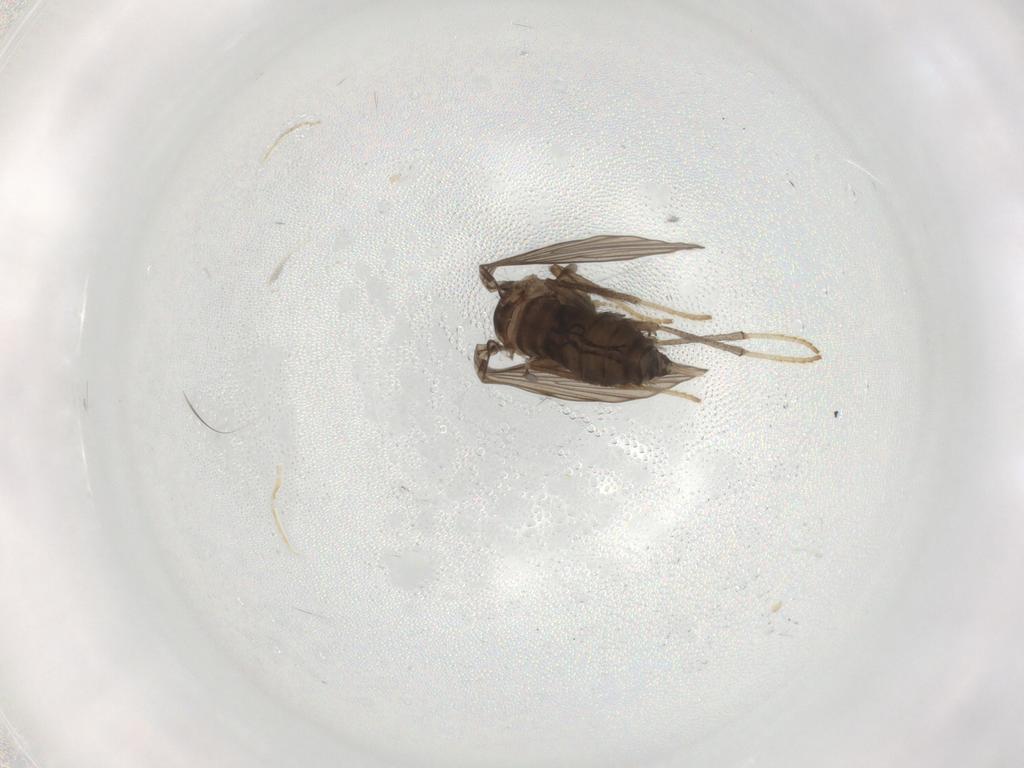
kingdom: Animalia
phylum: Arthropoda
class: Insecta
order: Diptera
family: Psychodidae
